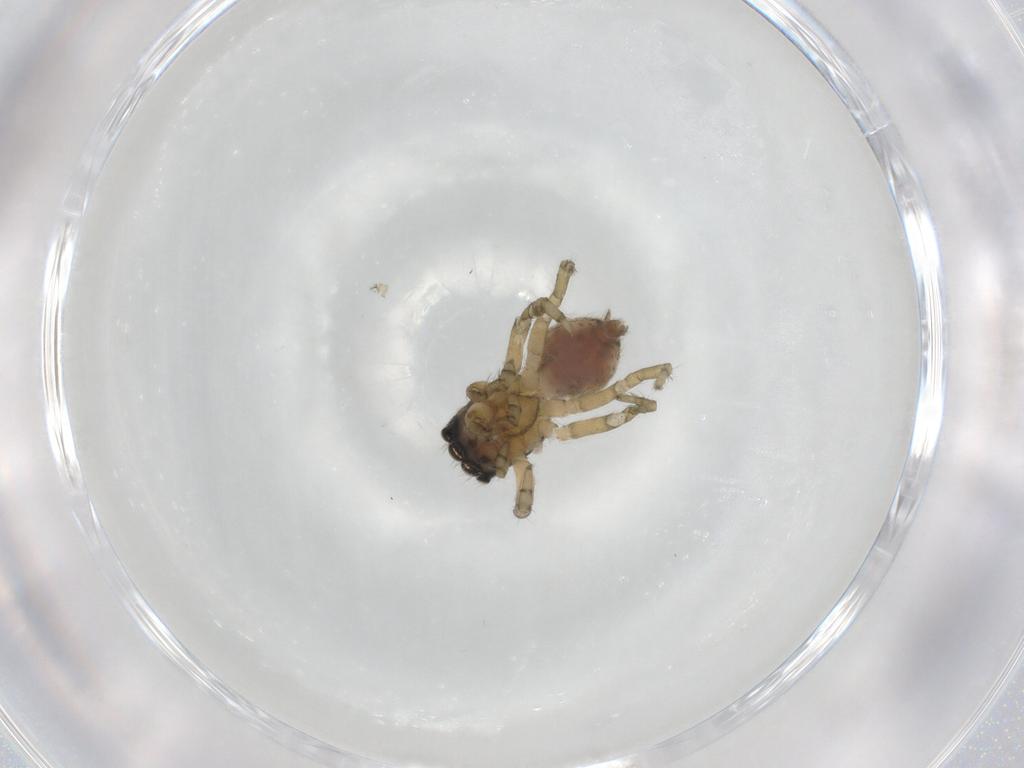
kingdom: Animalia
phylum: Arthropoda
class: Arachnida
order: Araneae
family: Salticidae
